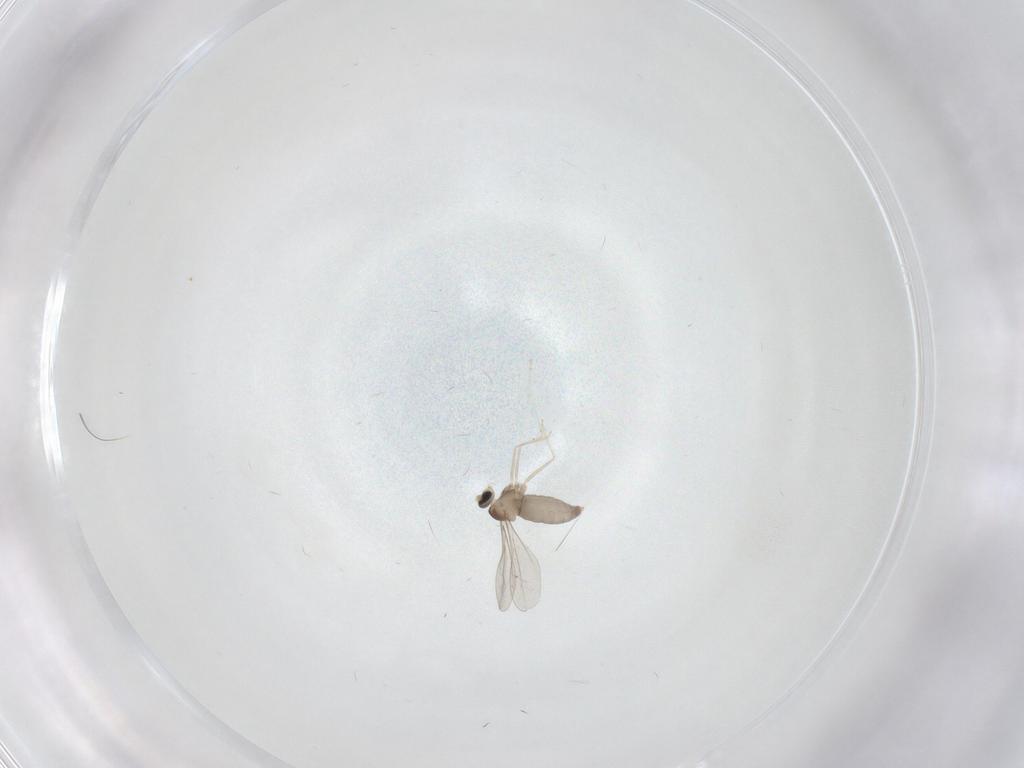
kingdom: Animalia
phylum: Arthropoda
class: Insecta
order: Diptera
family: Phoridae
